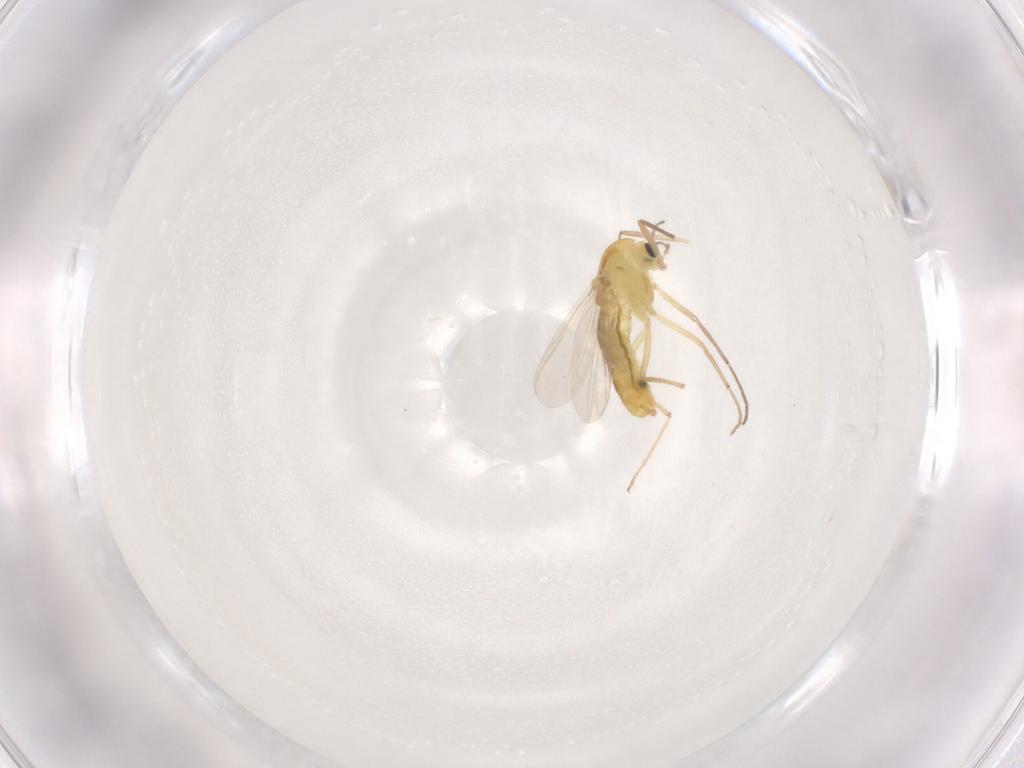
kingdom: Animalia
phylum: Arthropoda
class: Insecta
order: Diptera
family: Chironomidae
